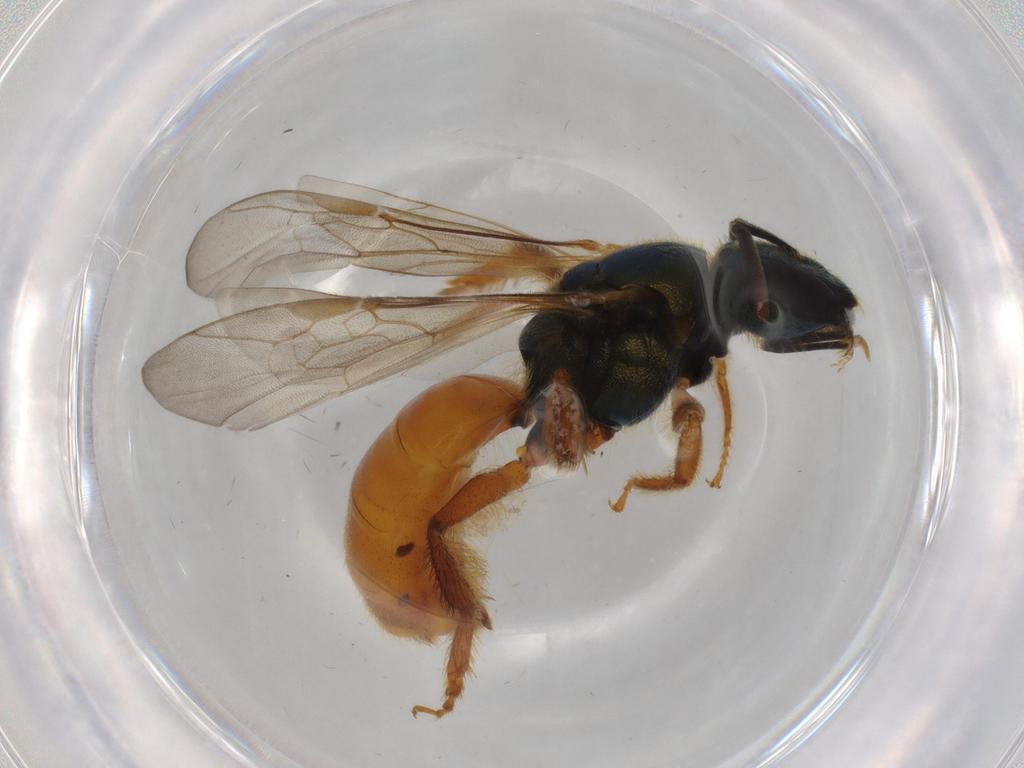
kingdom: Animalia
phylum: Arthropoda
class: Insecta
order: Hymenoptera
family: Halictidae
